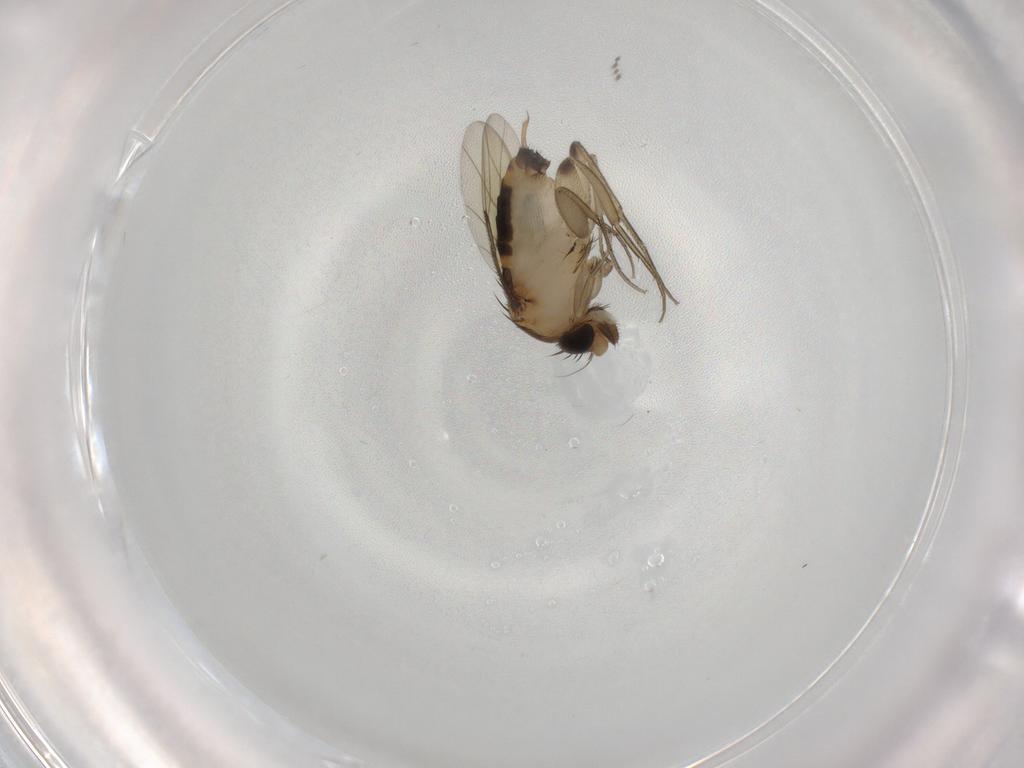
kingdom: Animalia
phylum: Arthropoda
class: Insecta
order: Diptera
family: Phoridae
